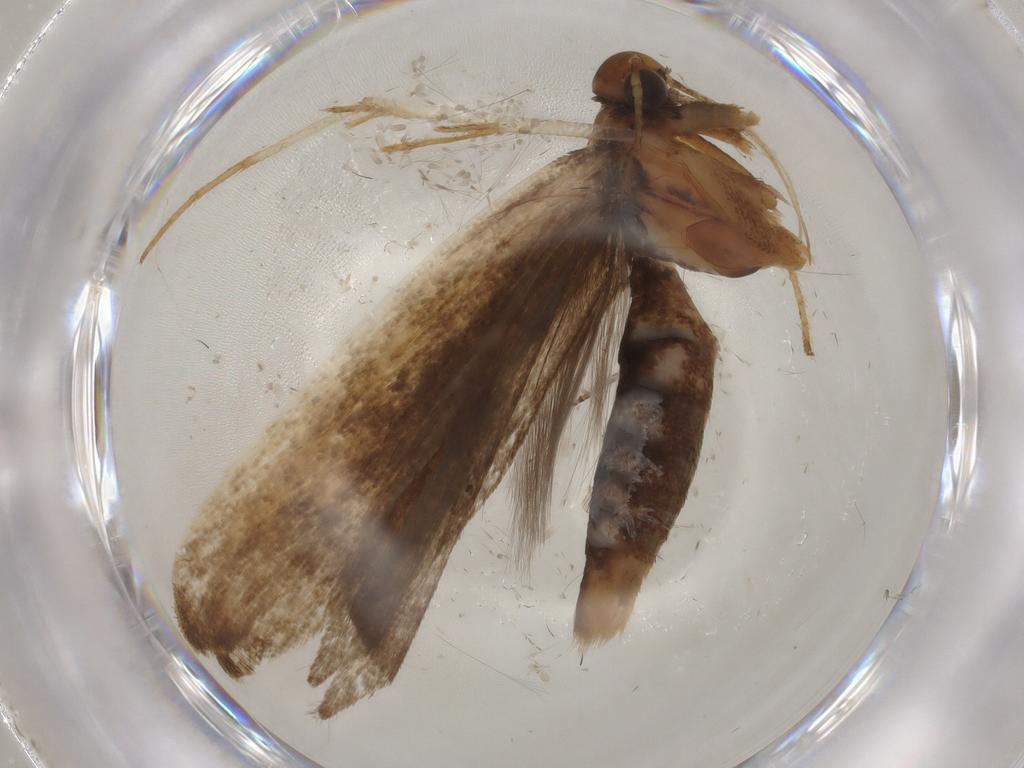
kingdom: Animalia
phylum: Arthropoda
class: Insecta
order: Lepidoptera
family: Gelechiidae
